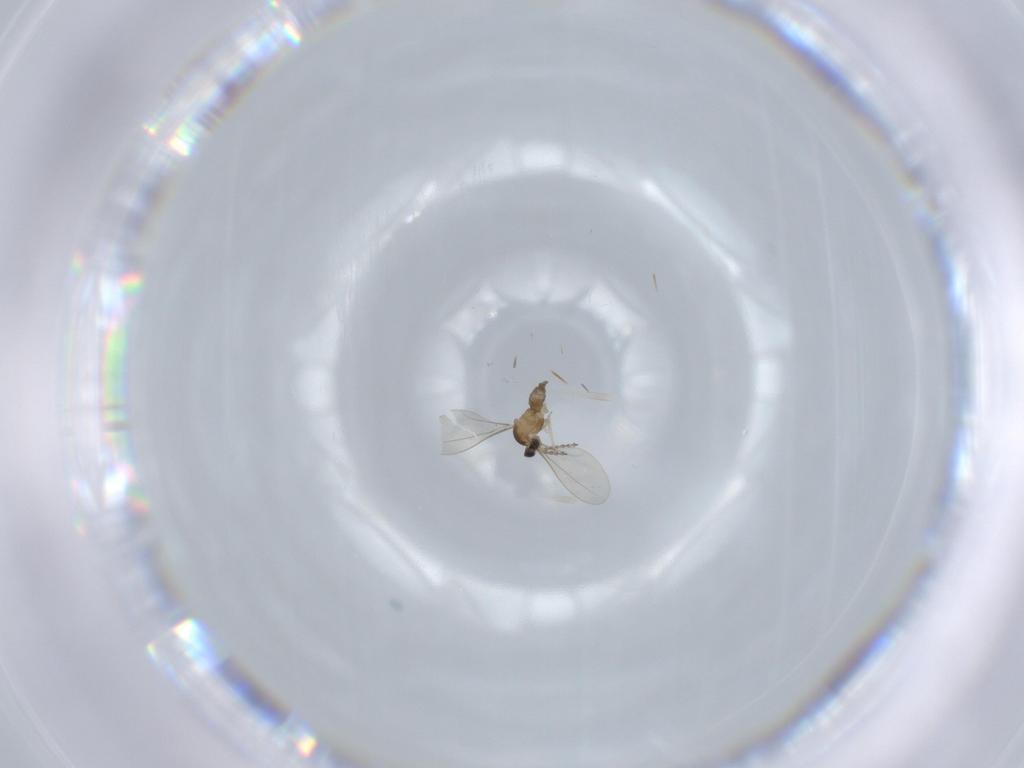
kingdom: Animalia
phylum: Arthropoda
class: Insecta
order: Diptera
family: Cecidomyiidae
